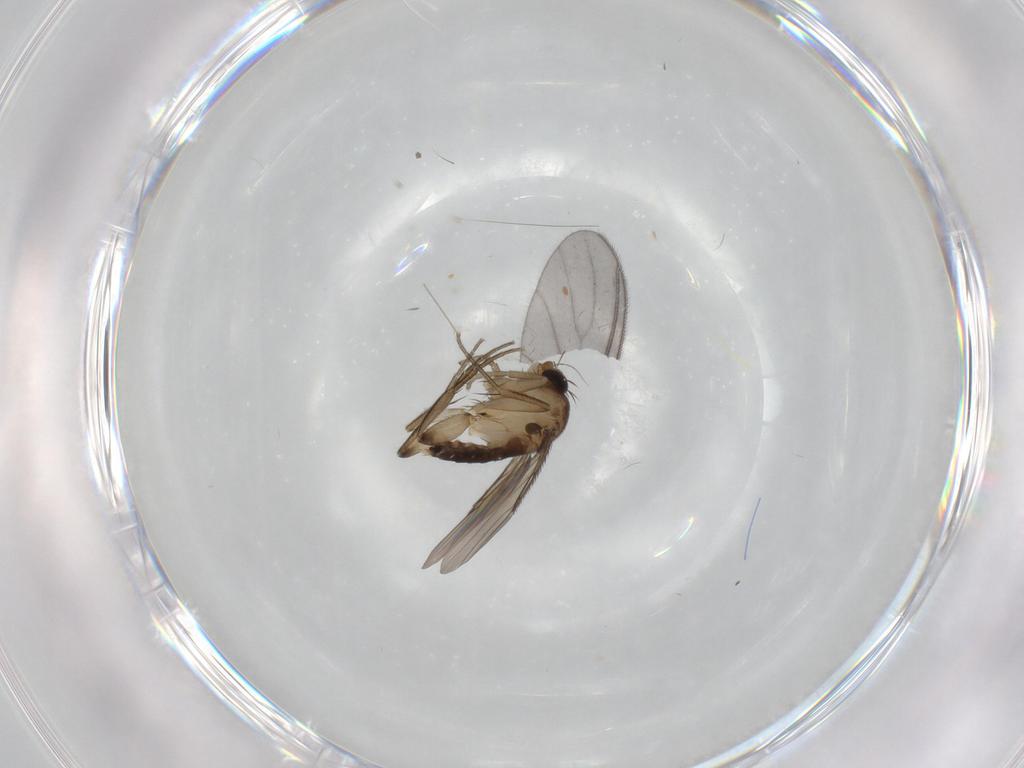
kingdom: Animalia
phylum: Arthropoda
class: Insecta
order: Diptera
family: Phoridae
